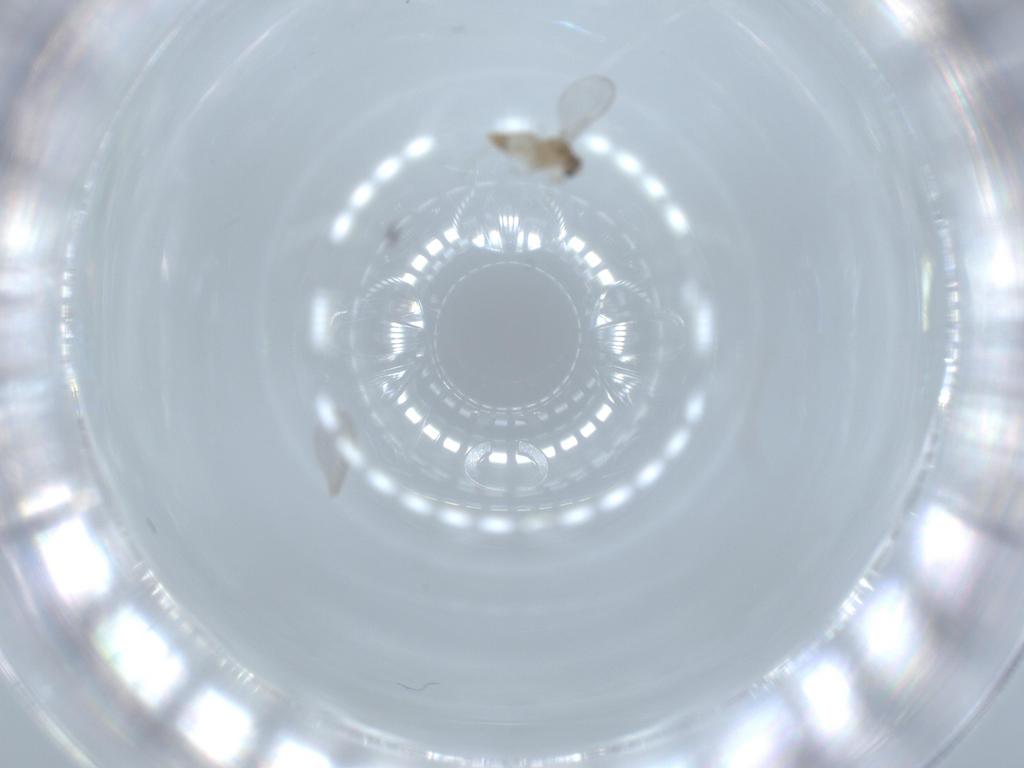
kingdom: Animalia
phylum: Arthropoda
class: Insecta
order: Diptera
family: Cecidomyiidae
